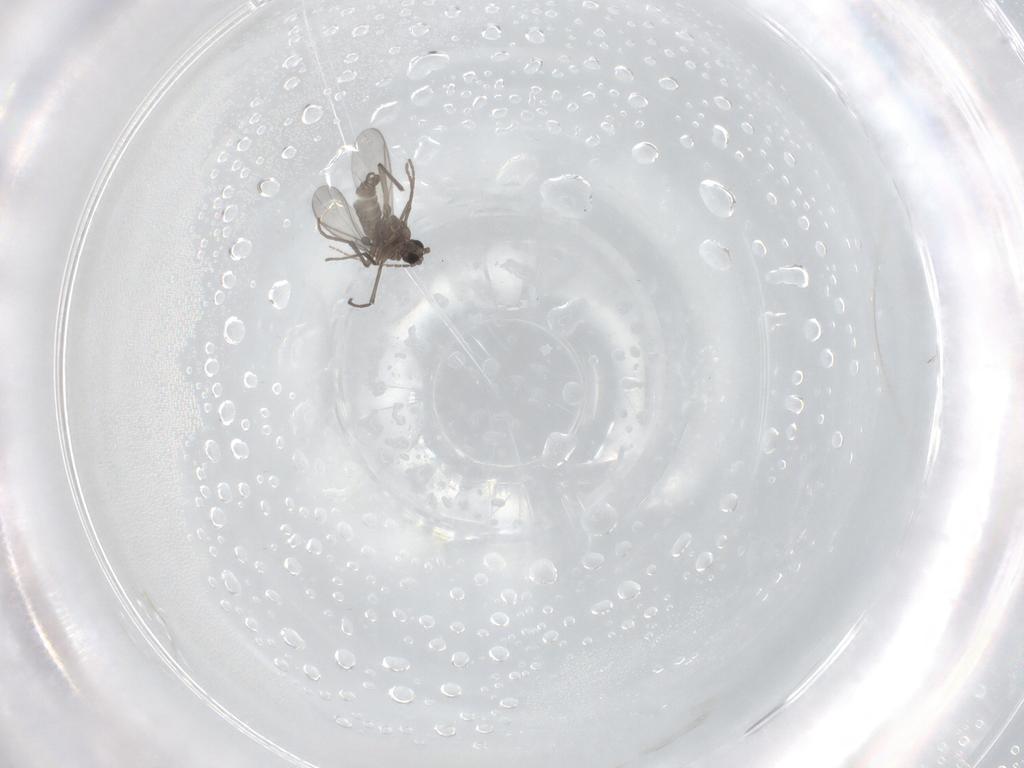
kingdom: Animalia
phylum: Arthropoda
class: Insecta
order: Diptera
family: Sciaridae
